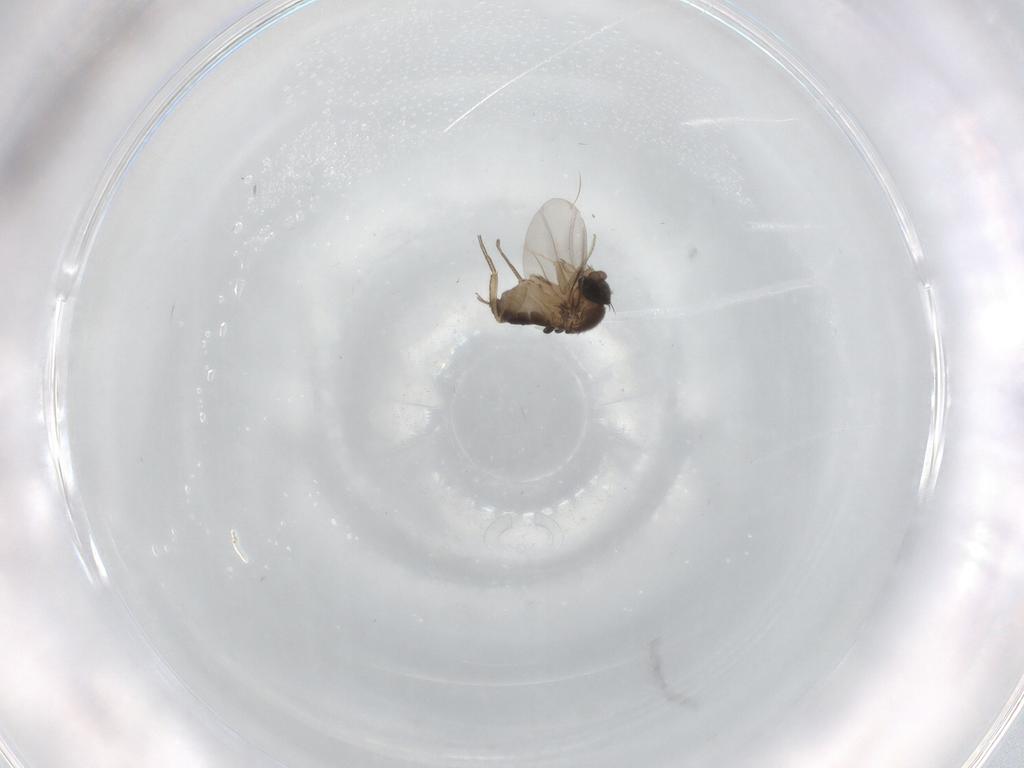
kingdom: Animalia
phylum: Arthropoda
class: Insecta
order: Diptera
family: Phoridae
